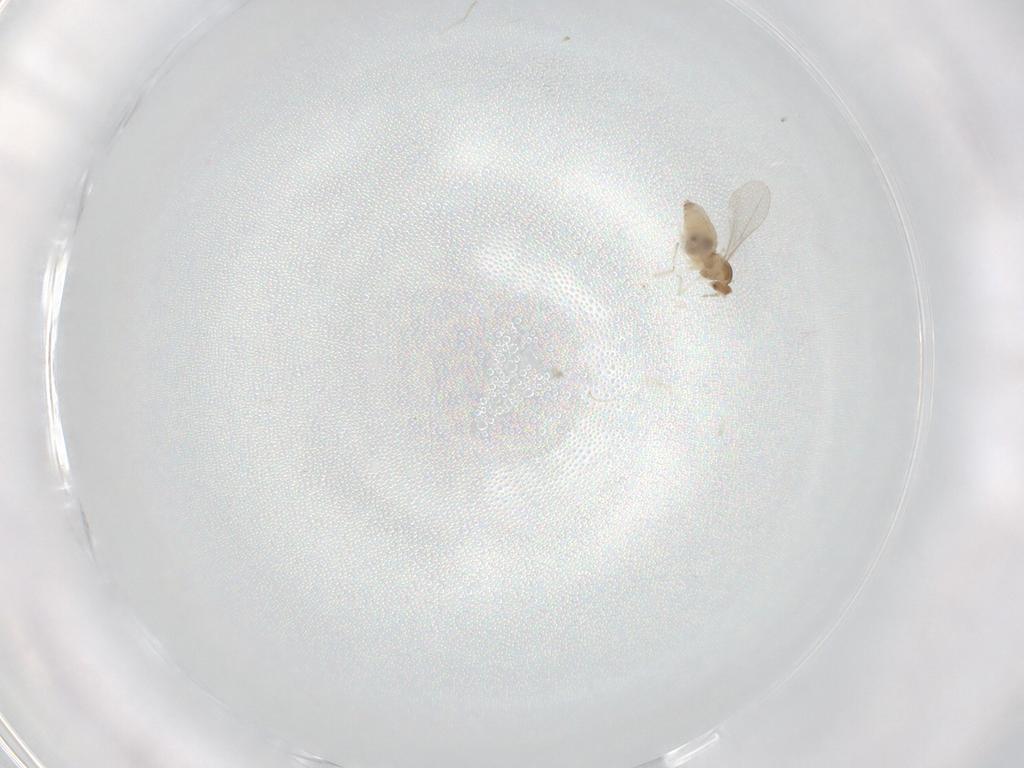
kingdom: Animalia
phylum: Arthropoda
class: Insecta
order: Diptera
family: Cecidomyiidae
